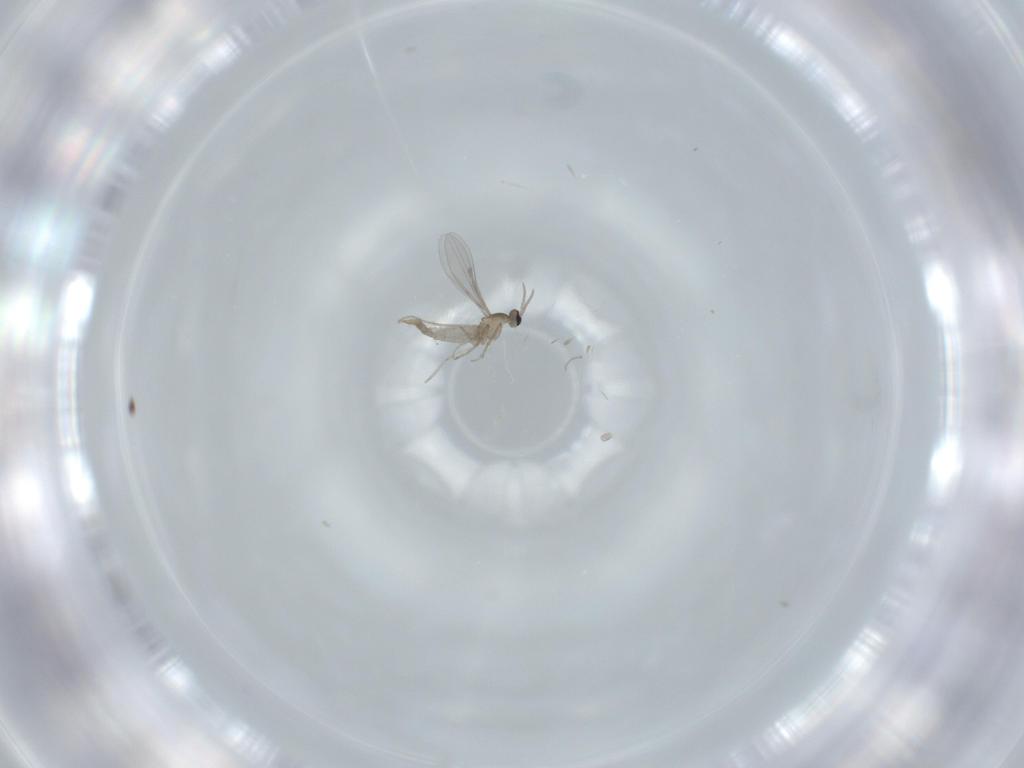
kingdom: Animalia
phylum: Arthropoda
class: Insecta
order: Diptera
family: Cecidomyiidae
